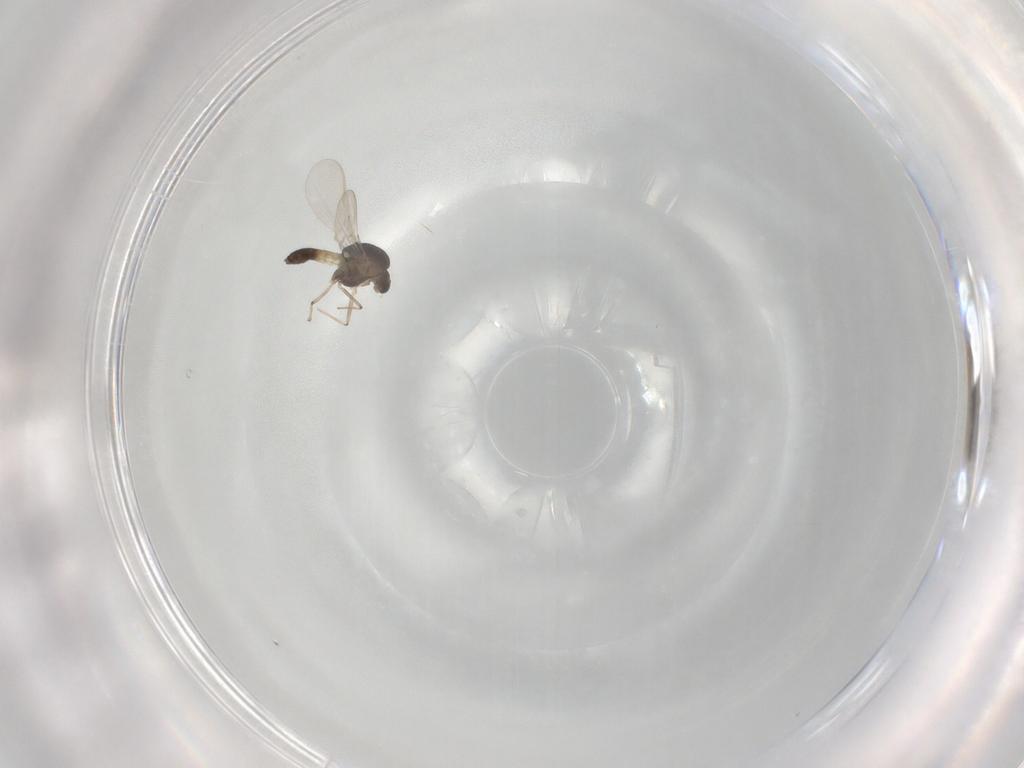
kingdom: Animalia
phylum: Arthropoda
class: Insecta
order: Diptera
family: Chironomidae
